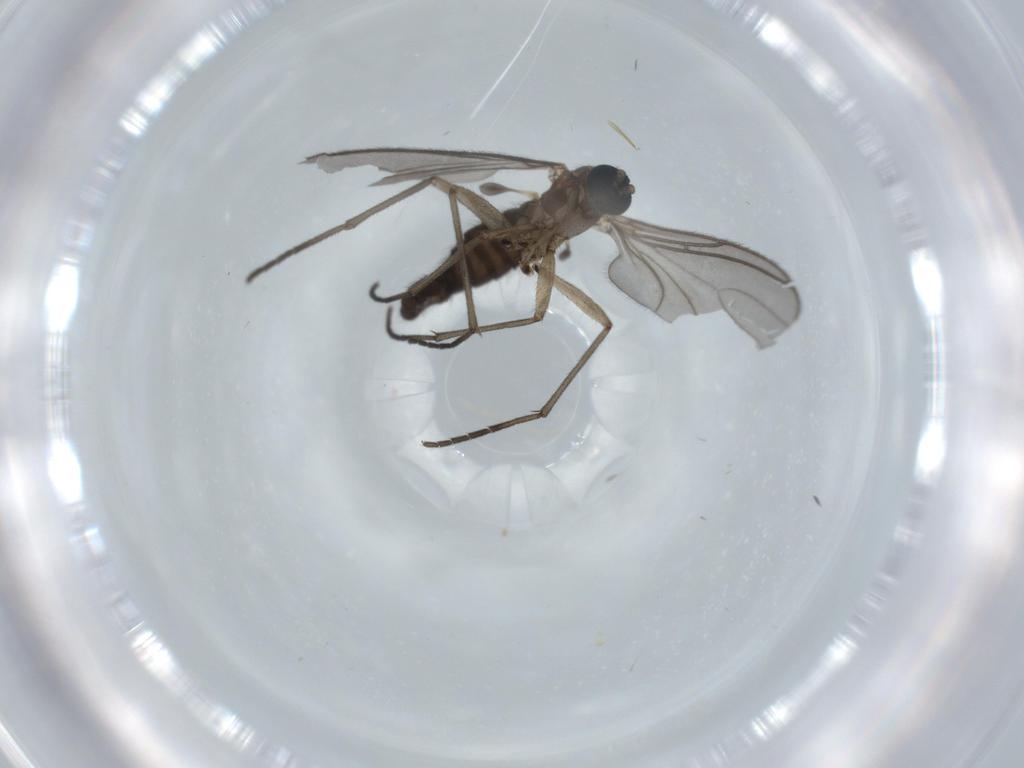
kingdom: Animalia
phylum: Arthropoda
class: Insecta
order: Diptera
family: Sciaridae
